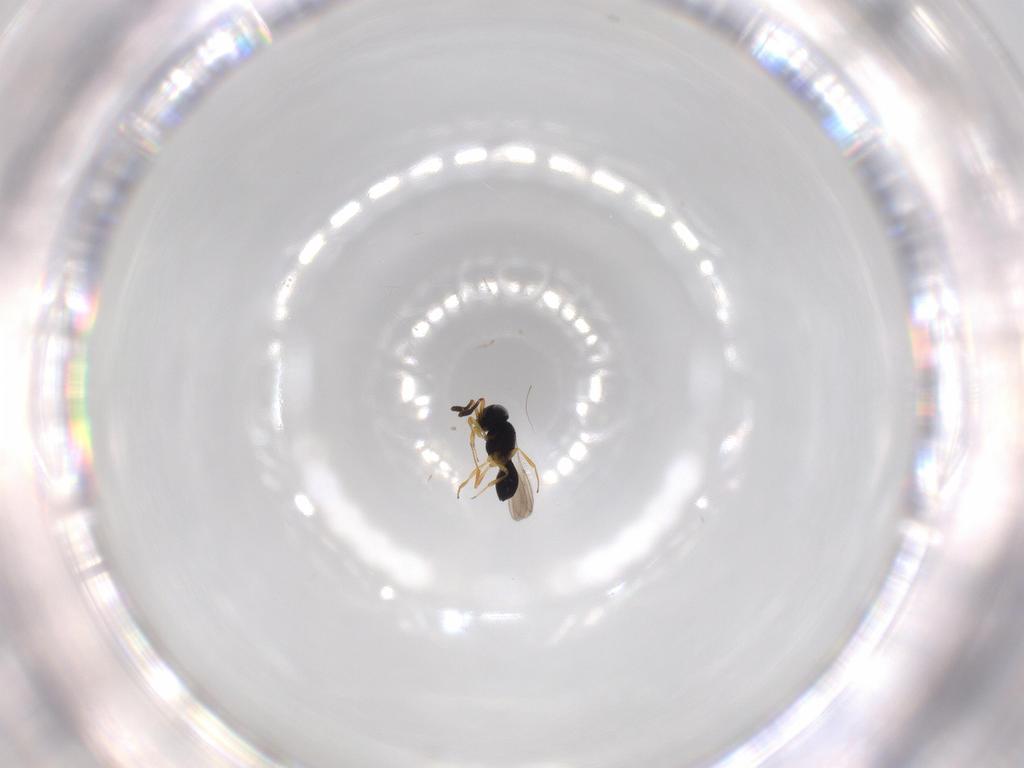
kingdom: Animalia
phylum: Arthropoda
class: Insecta
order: Hymenoptera
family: Scelionidae
